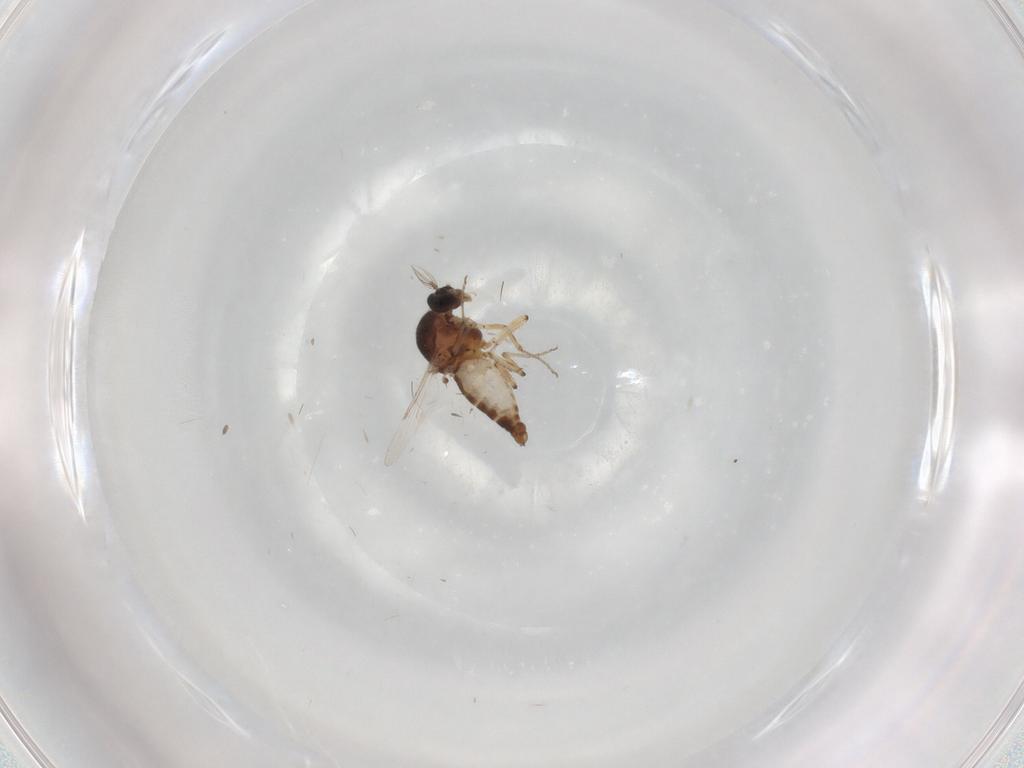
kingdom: Animalia
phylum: Arthropoda
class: Insecta
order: Diptera
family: Ceratopogonidae
